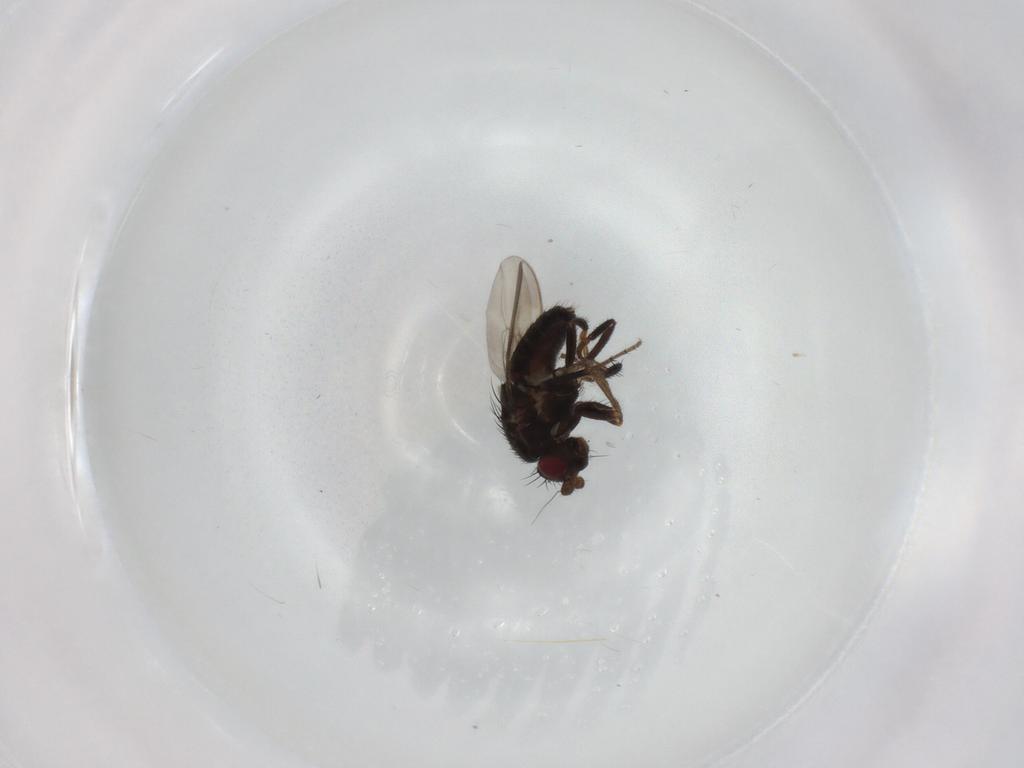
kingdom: Animalia
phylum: Arthropoda
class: Insecta
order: Diptera
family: Sphaeroceridae
